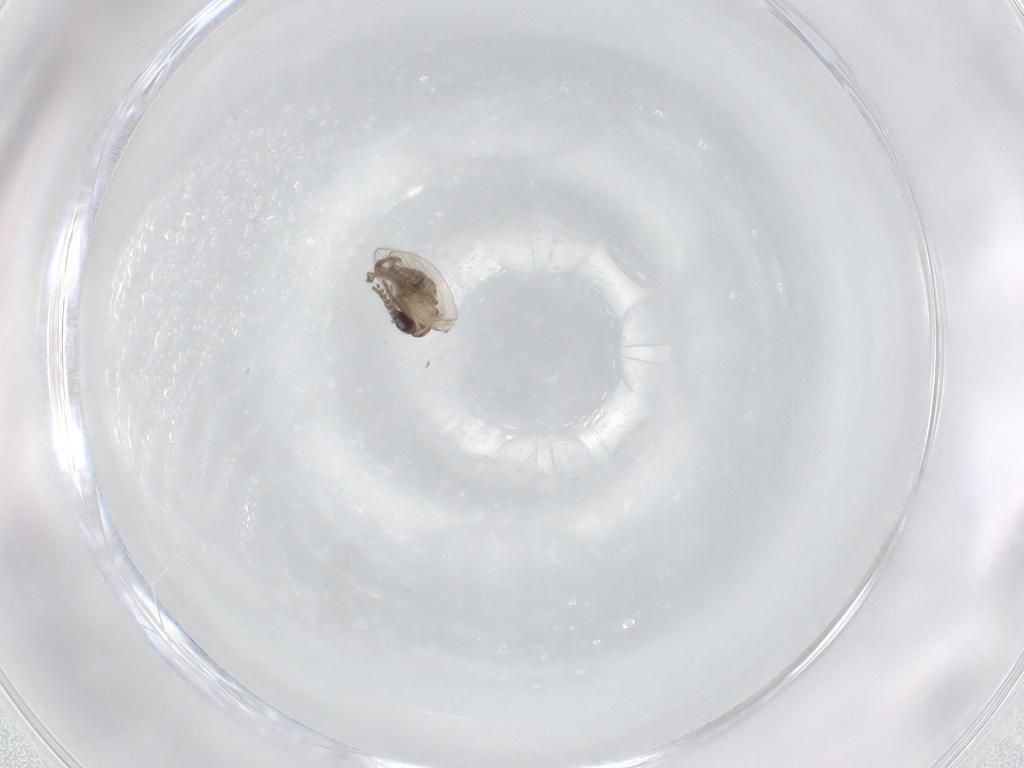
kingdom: Animalia
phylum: Arthropoda
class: Insecta
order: Diptera
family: Psychodidae
